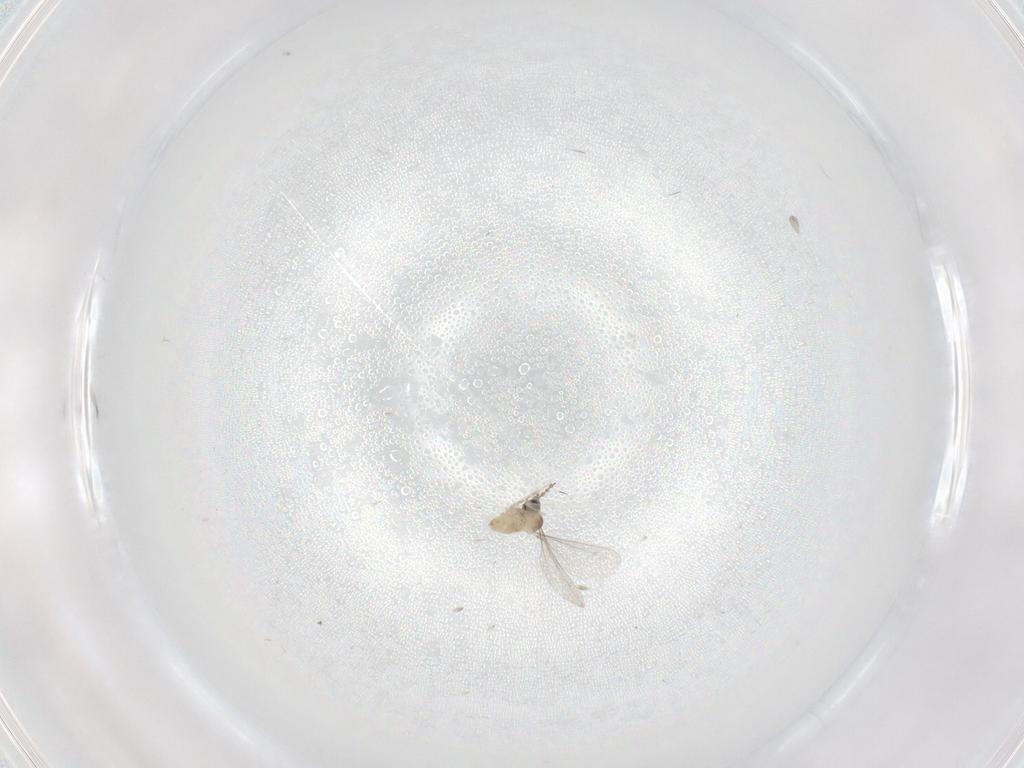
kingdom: Animalia
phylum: Arthropoda
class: Insecta
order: Diptera
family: Cecidomyiidae
